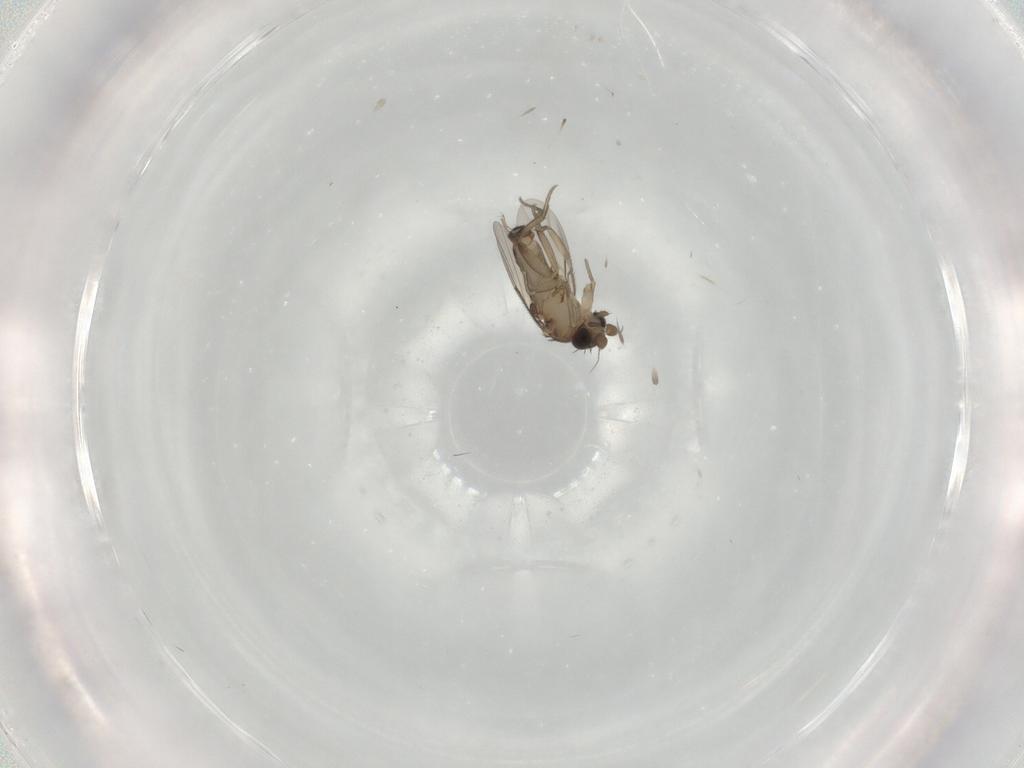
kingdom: Animalia
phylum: Arthropoda
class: Insecta
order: Diptera
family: Phoridae
